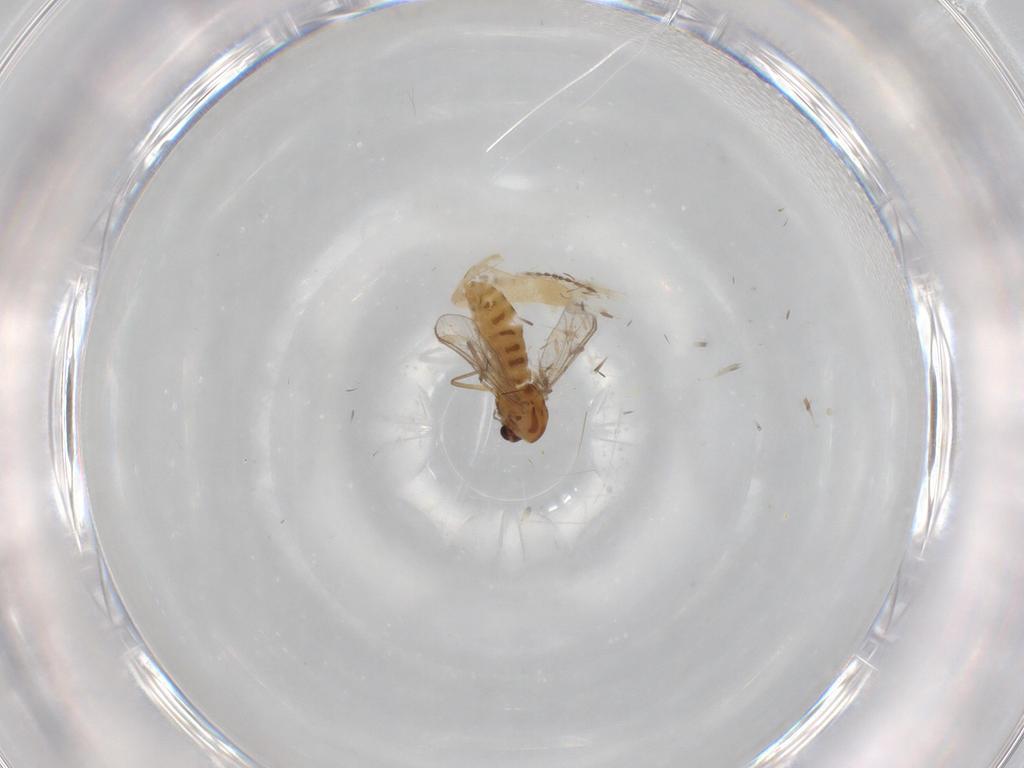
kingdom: Animalia
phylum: Arthropoda
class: Insecta
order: Diptera
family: Chironomidae
